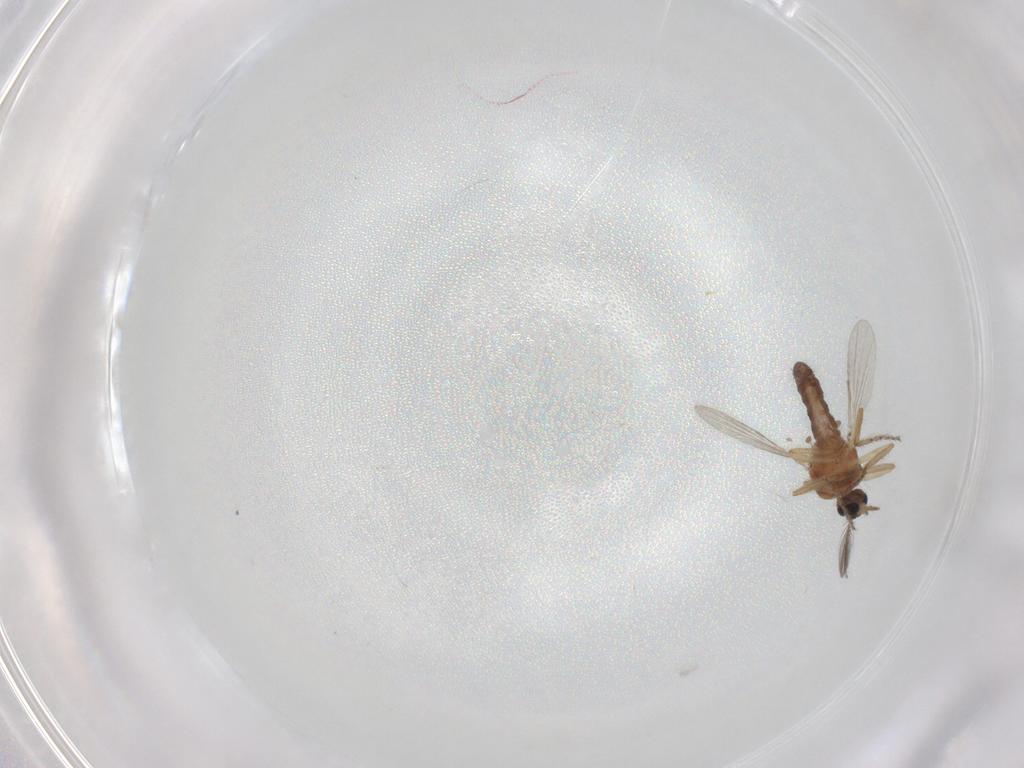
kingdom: Animalia
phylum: Arthropoda
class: Insecta
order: Diptera
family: Ceratopogonidae
